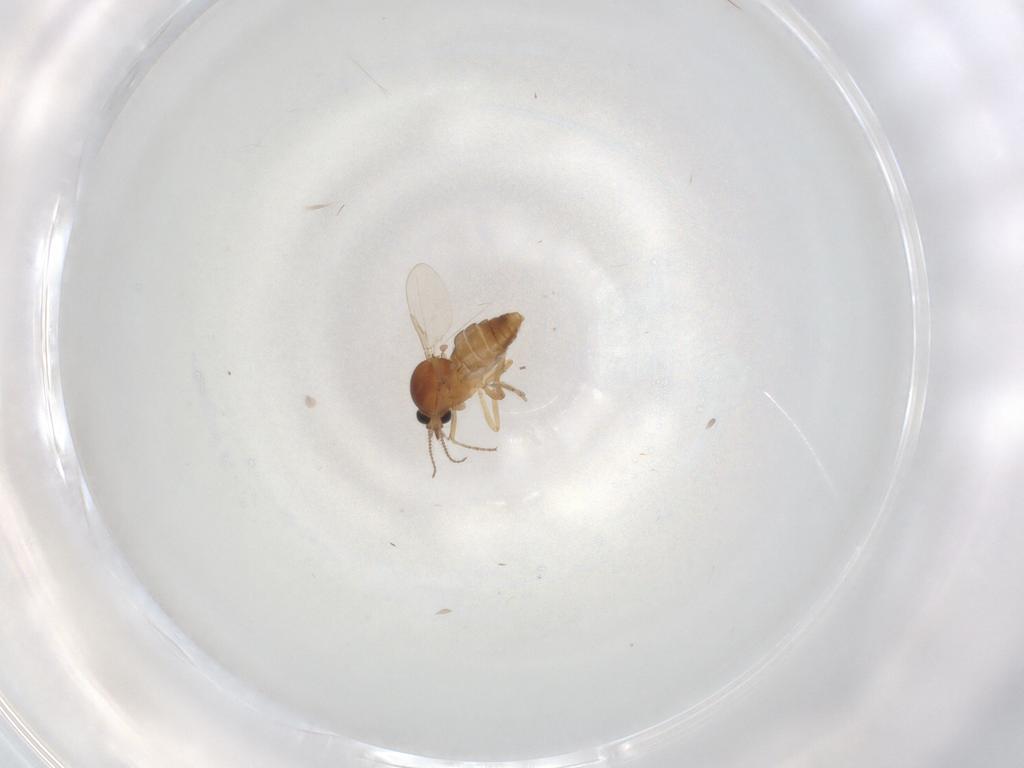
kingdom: Animalia
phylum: Arthropoda
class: Insecta
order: Diptera
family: Ceratopogonidae
